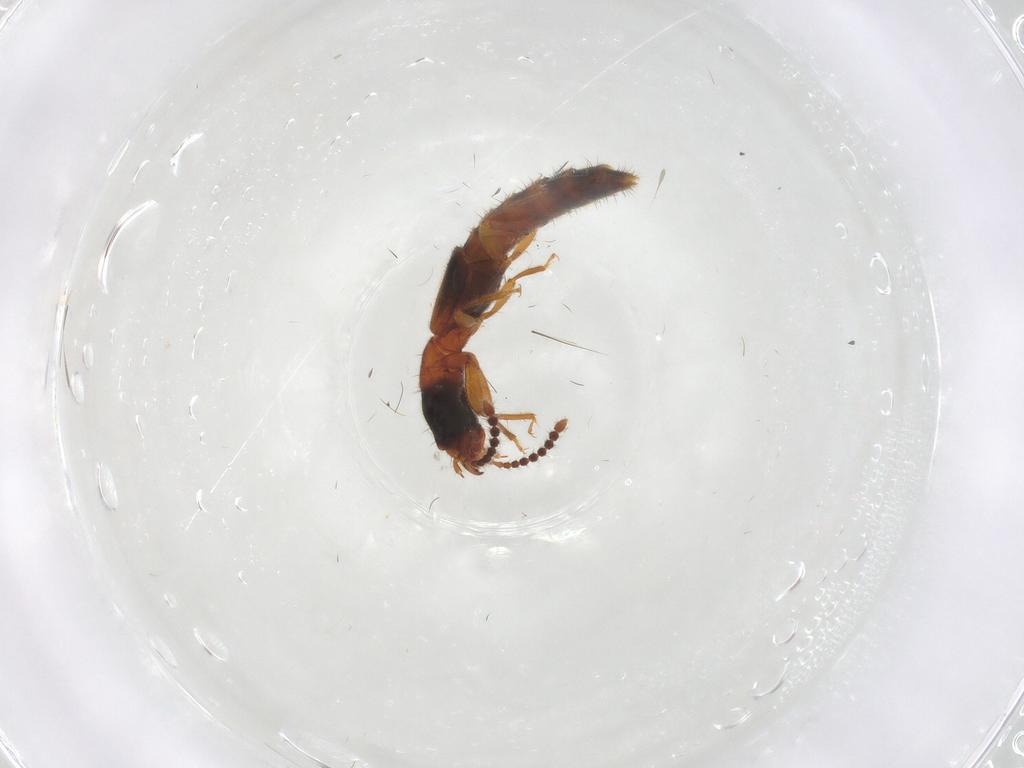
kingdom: Animalia
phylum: Arthropoda
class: Insecta
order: Coleoptera
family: Staphylinidae
